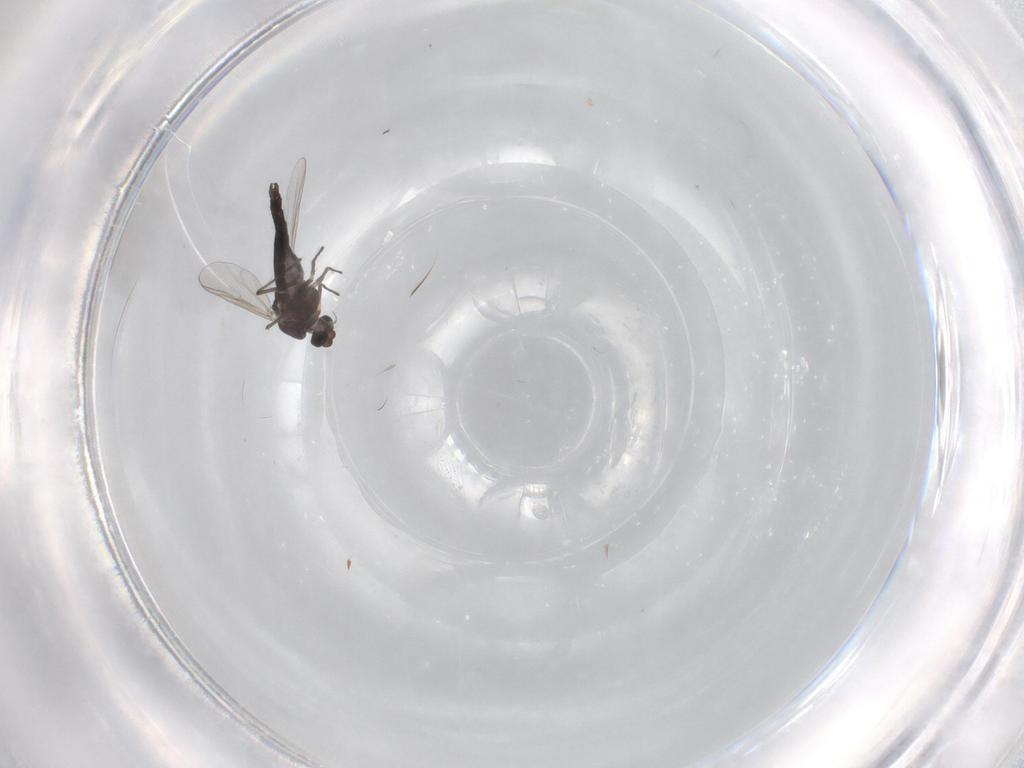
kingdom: Animalia
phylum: Arthropoda
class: Insecta
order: Diptera
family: Chironomidae
